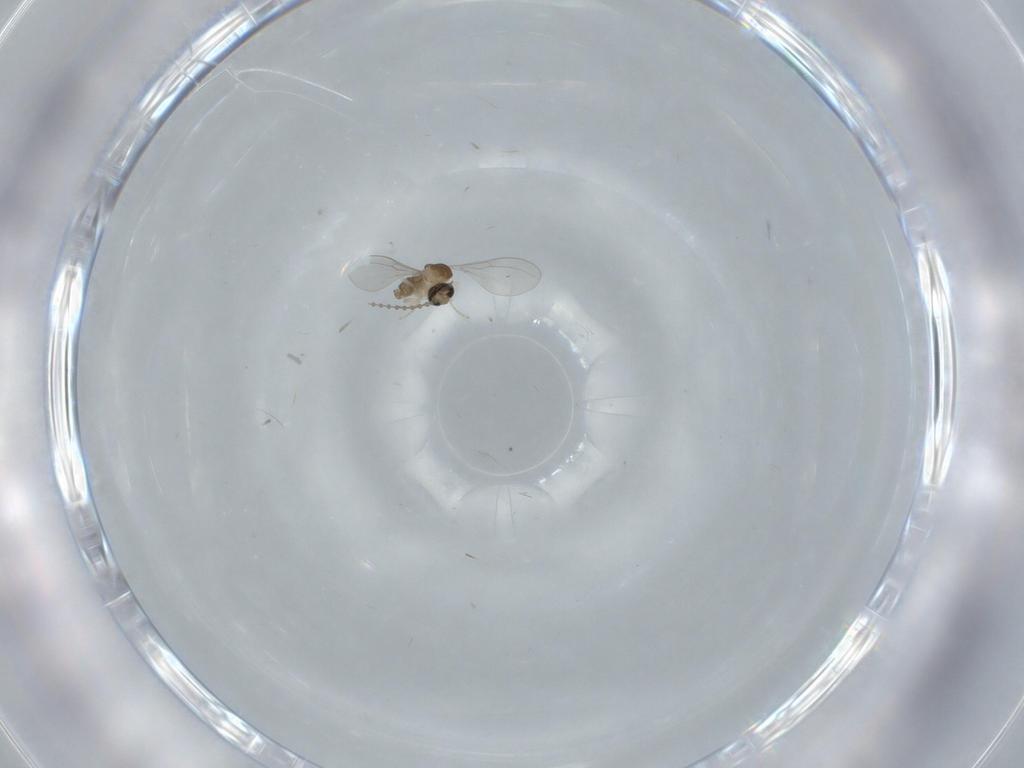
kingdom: Animalia
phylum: Arthropoda
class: Insecta
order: Diptera
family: Cecidomyiidae
